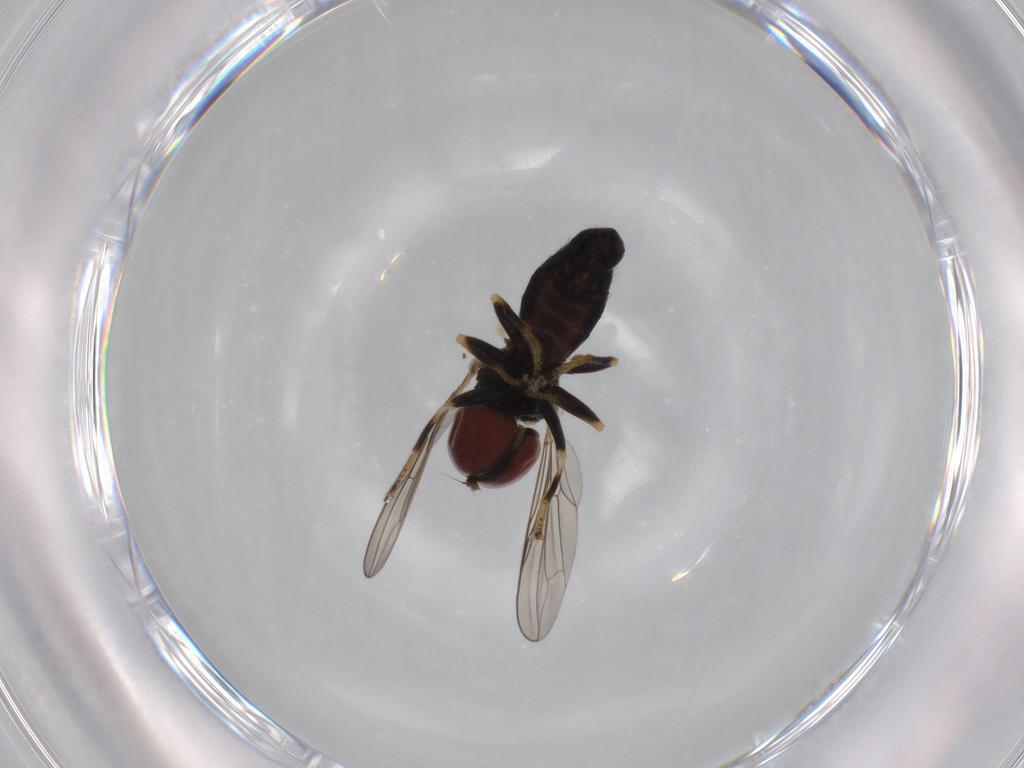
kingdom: Animalia
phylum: Arthropoda
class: Insecta
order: Diptera
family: Pipunculidae
